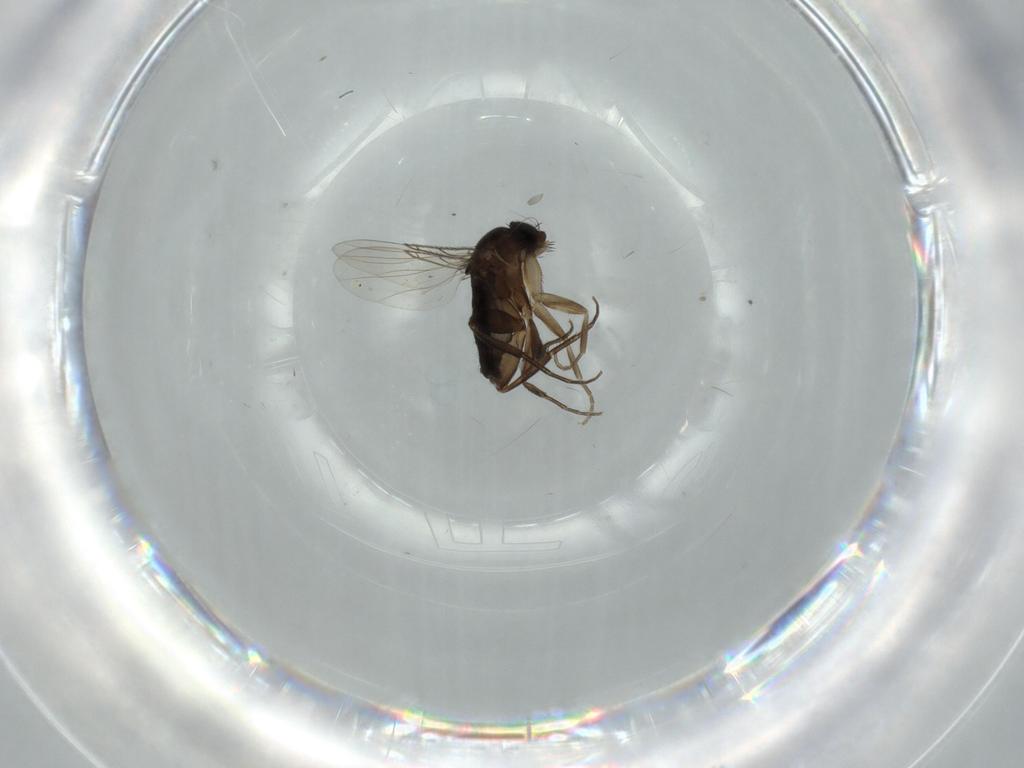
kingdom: Animalia
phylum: Arthropoda
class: Insecta
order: Diptera
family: Phoridae
